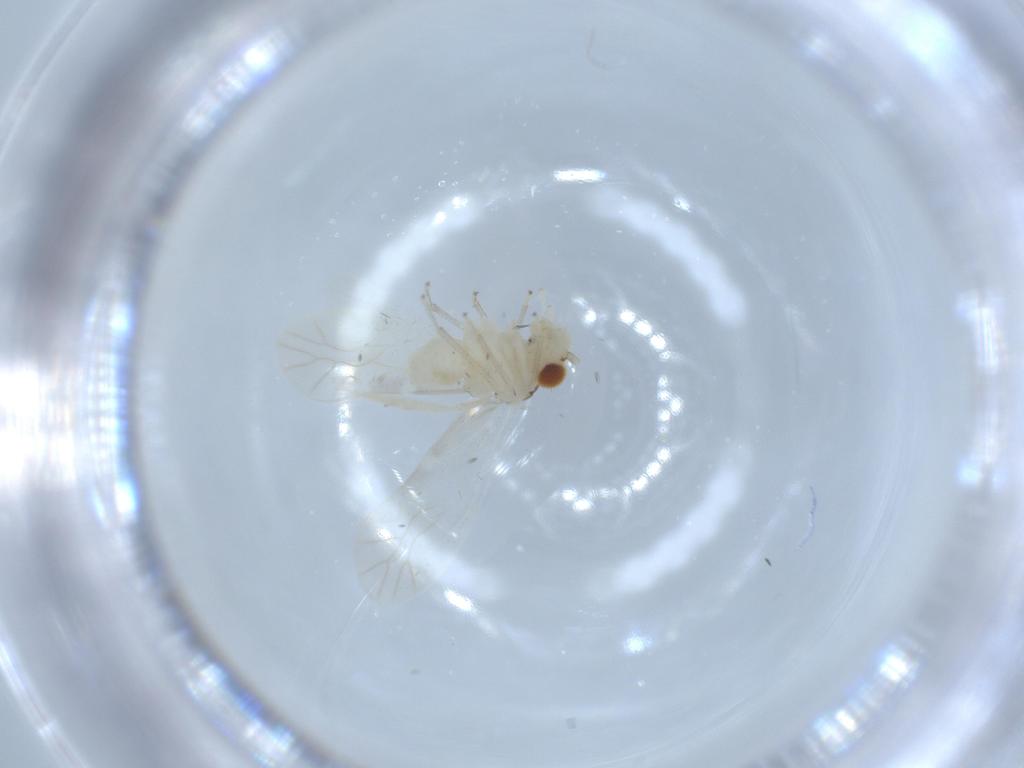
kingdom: Animalia
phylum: Arthropoda
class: Insecta
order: Psocodea
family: Caeciliusidae
